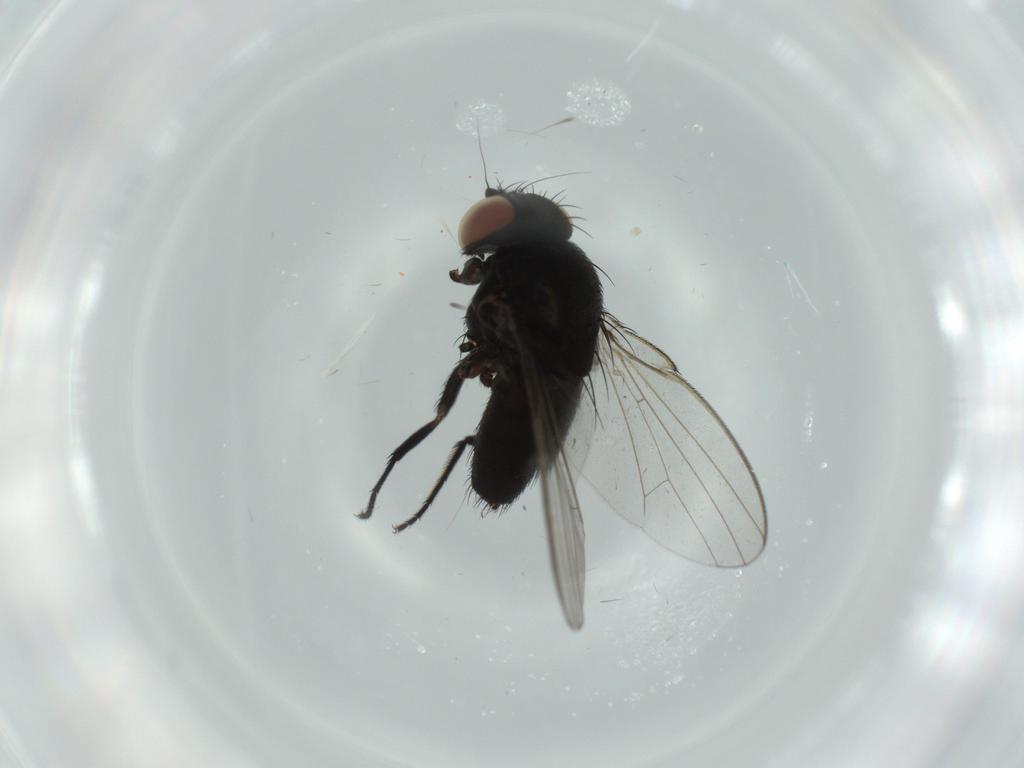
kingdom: Animalia
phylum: Arthropoda
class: Insecta
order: Diptera
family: Milichiidae
